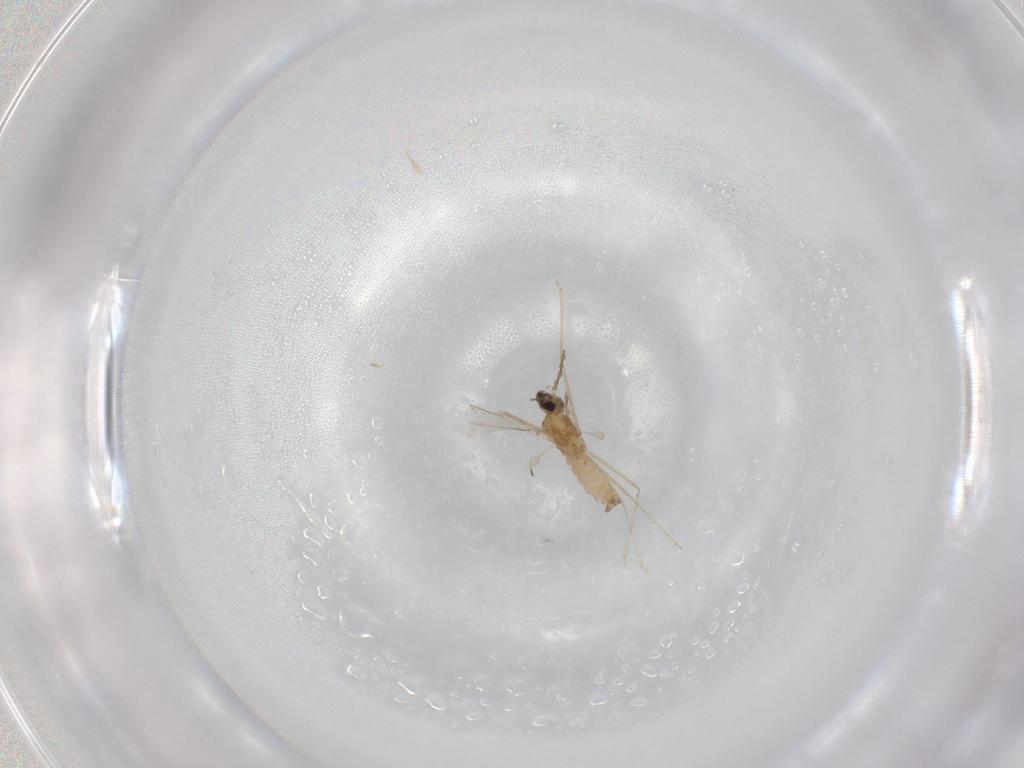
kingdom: Animalia
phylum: Arthropoda
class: Insecta
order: Diptera
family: Cecidomyiidae
